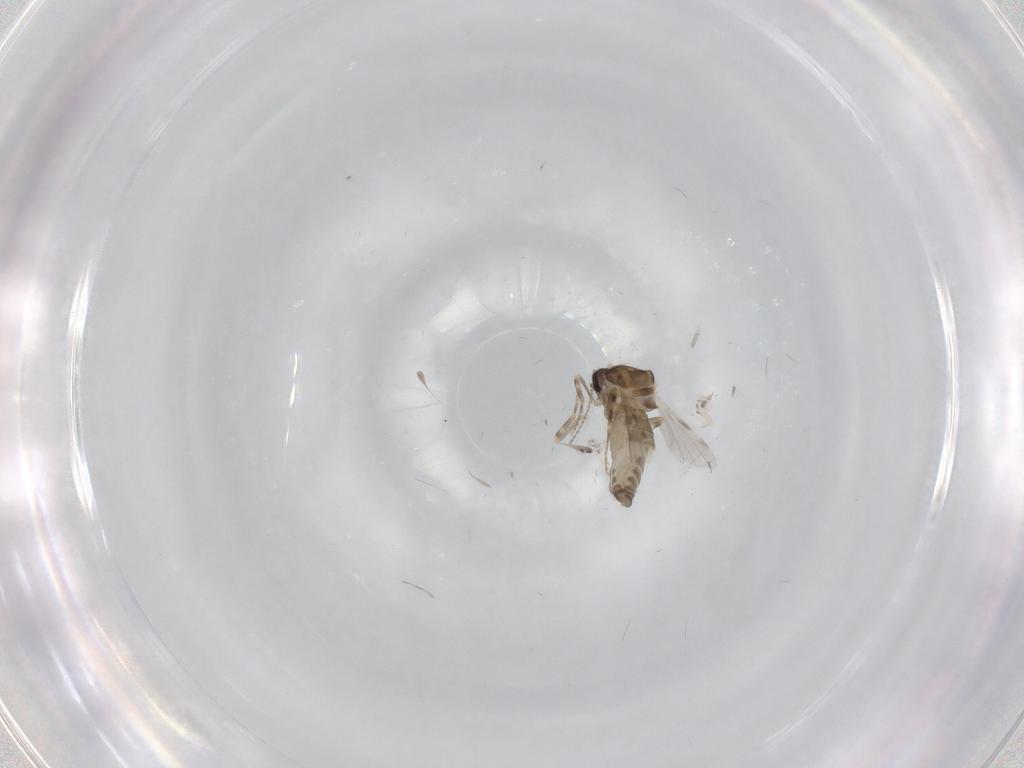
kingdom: Animalia
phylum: Arthropoda
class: Insecta
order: Diptera
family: Ceratopogonidae
